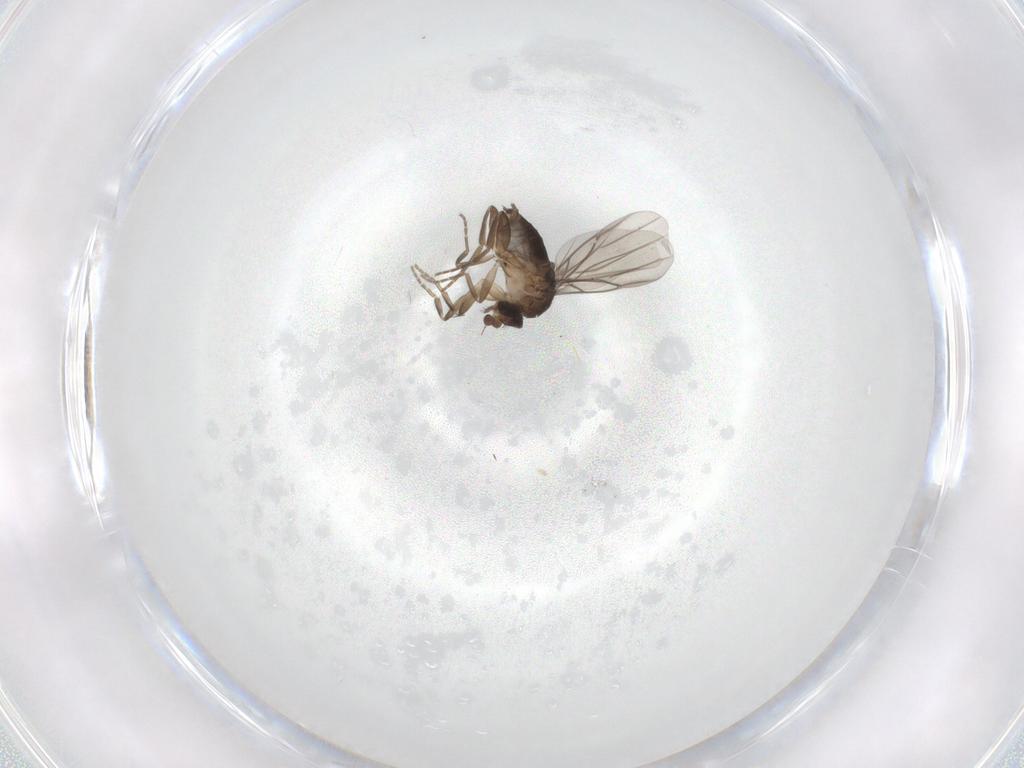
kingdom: Animalia
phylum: Arthropoda
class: Insecta
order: Diptera
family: Phoridae
